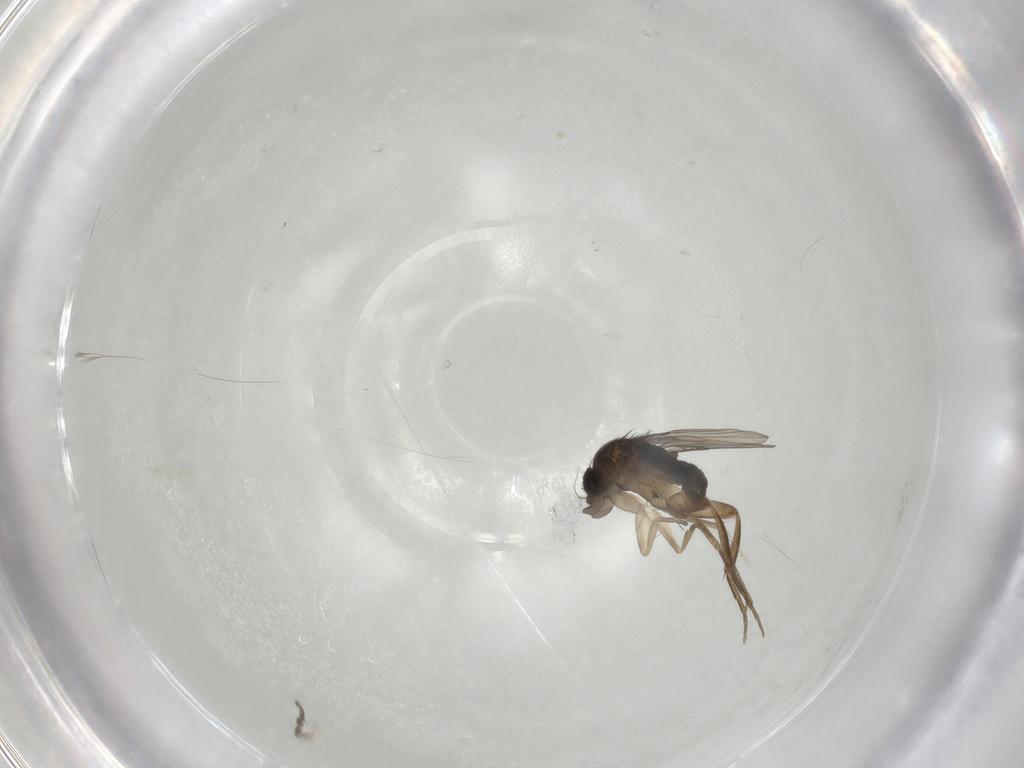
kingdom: Animalia
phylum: Arthropoda
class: Insecta
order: Diptera
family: Phoridae
